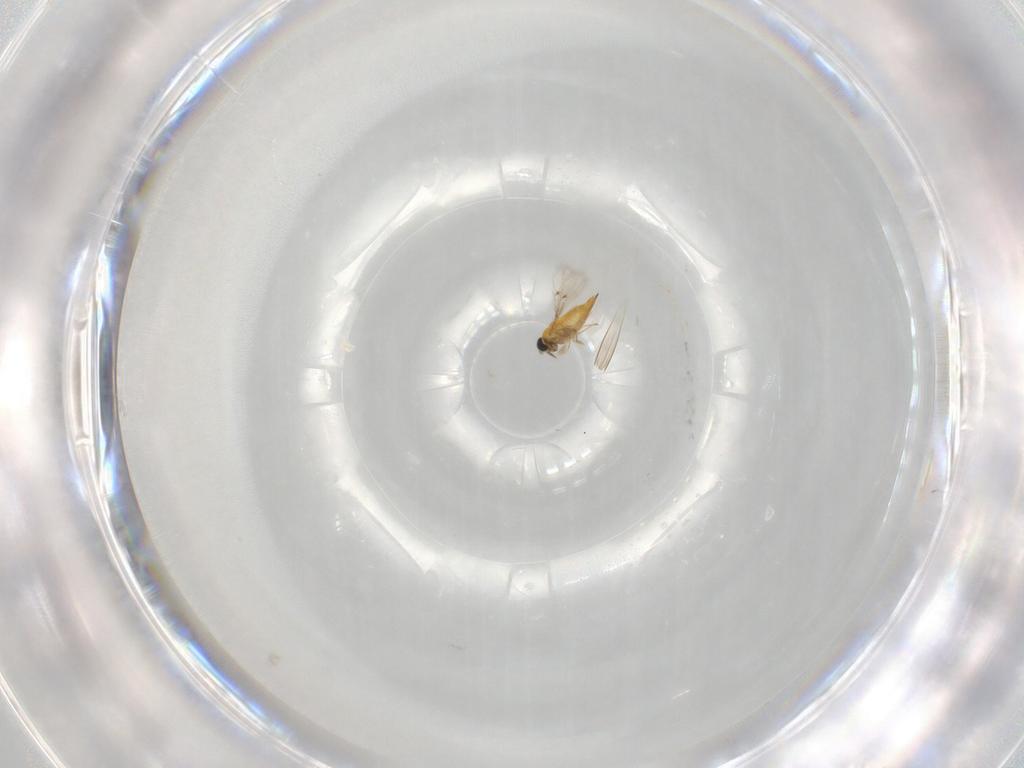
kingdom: Animalia
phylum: Arthropoda
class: Insecta
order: Hymenoptera
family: Trichogrammatidae
